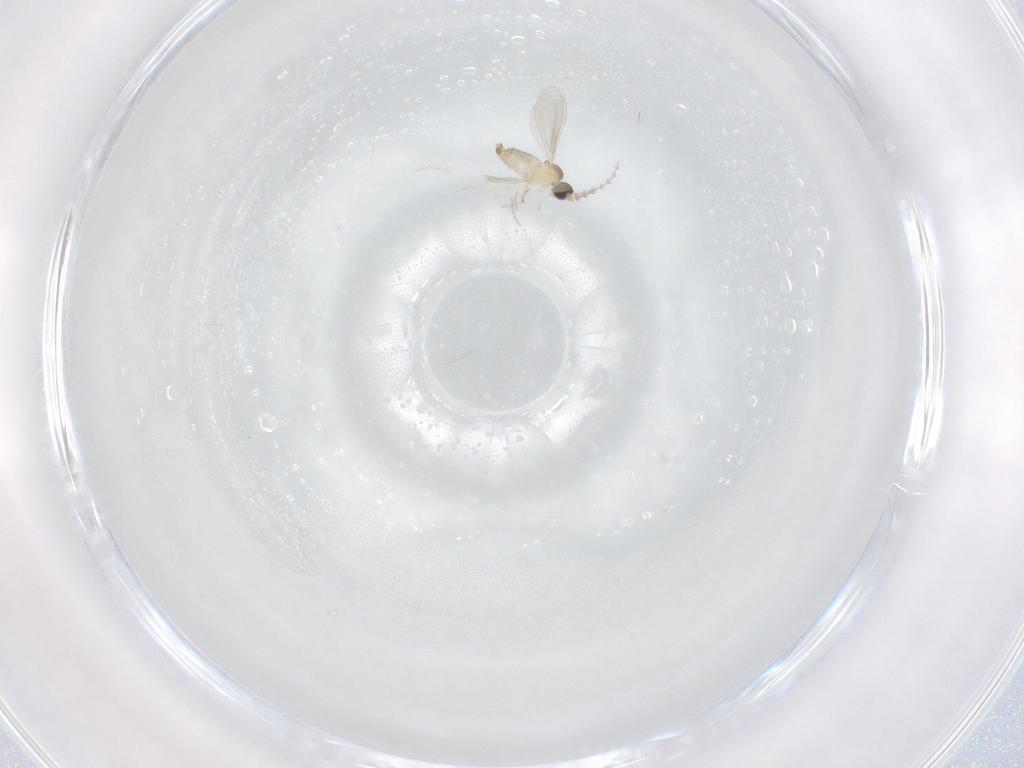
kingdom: Animalia
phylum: Arthropoda
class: Insecta
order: Diptera
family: Cecidomyiidae
